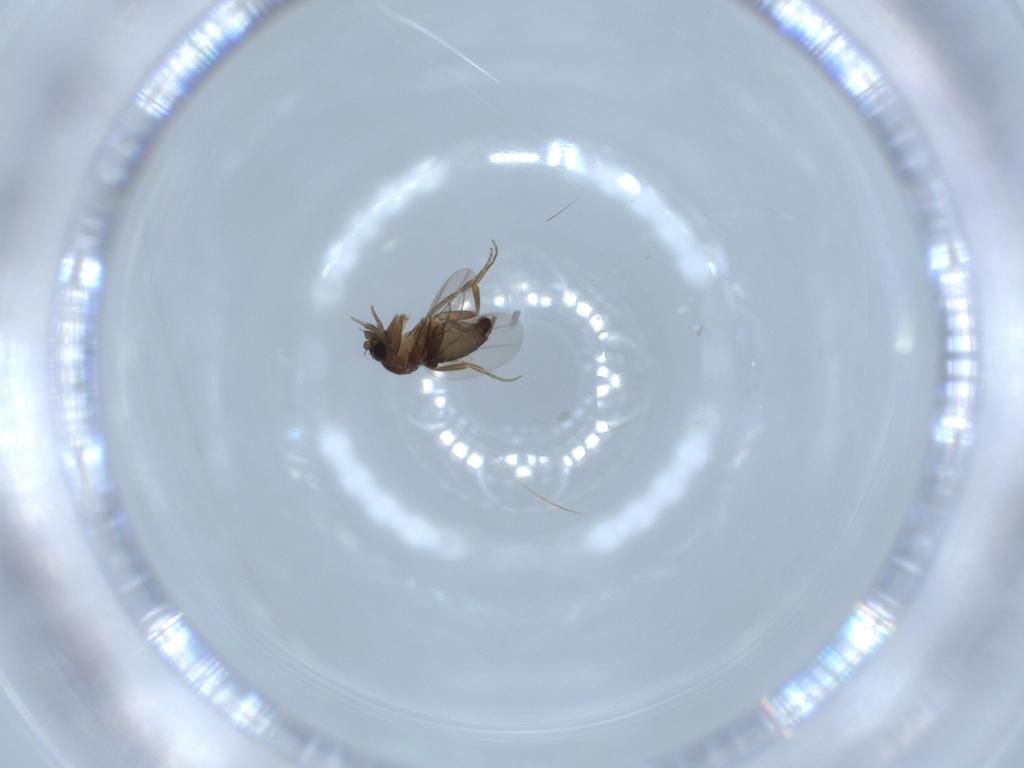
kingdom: Animalia
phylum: Arthropoda
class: Insecta
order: Diptera
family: Phoridae
